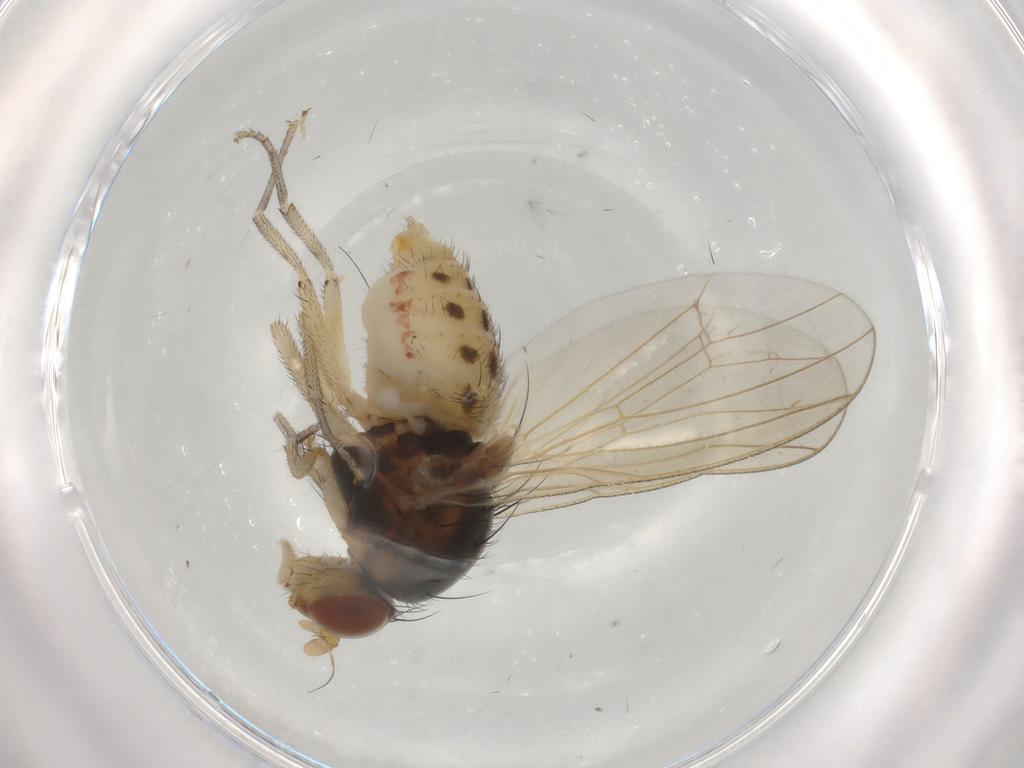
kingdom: Animalia
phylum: Arthropoda
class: Insecta
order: Diptera
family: Lauxaniidae
